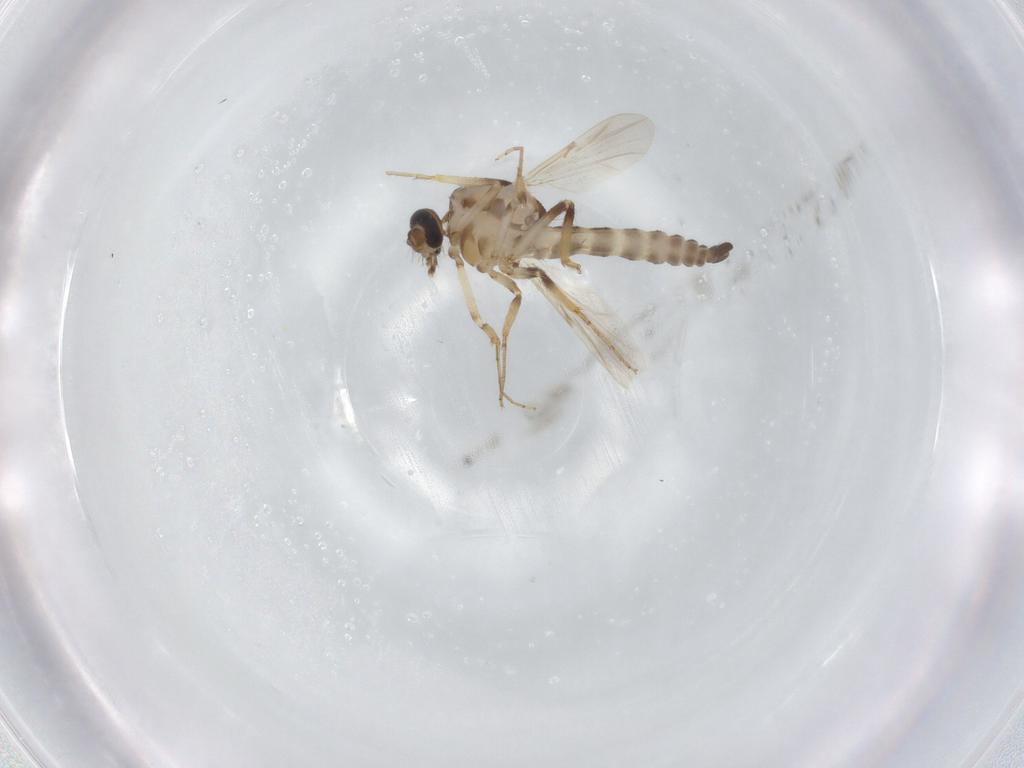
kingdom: Animalia
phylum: Arthropoda
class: Insecta
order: Diptera
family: Ceratopogonidae
